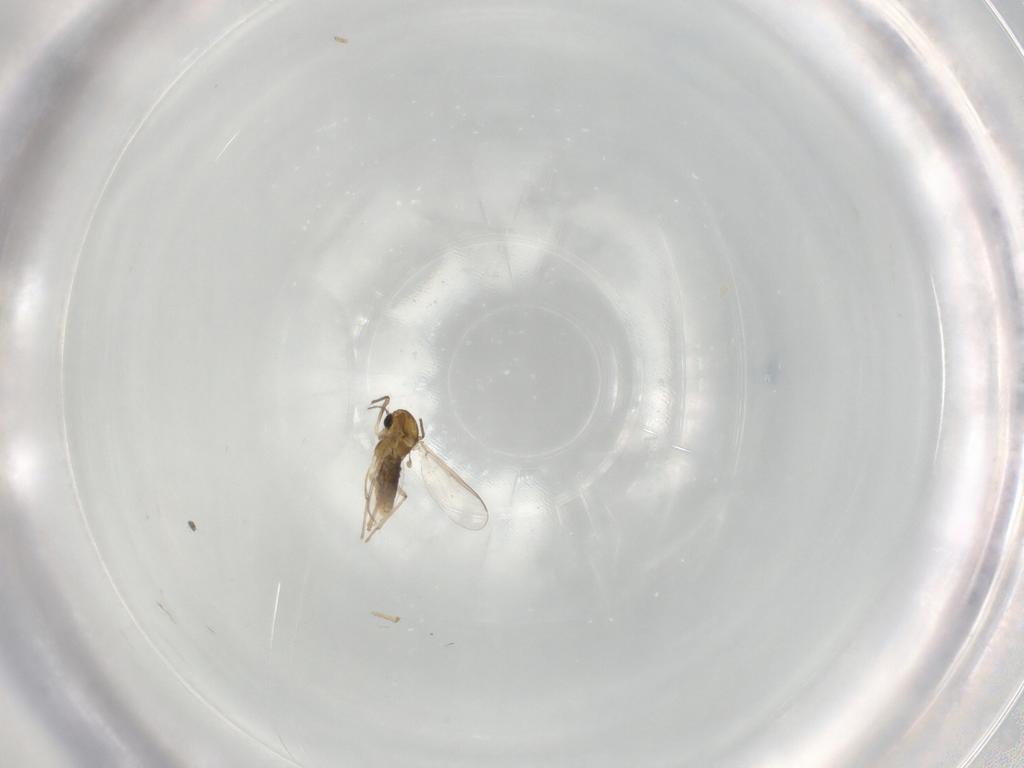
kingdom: Animalia
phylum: Arthropoda
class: Insecta
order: Diptera
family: Chironomidae
